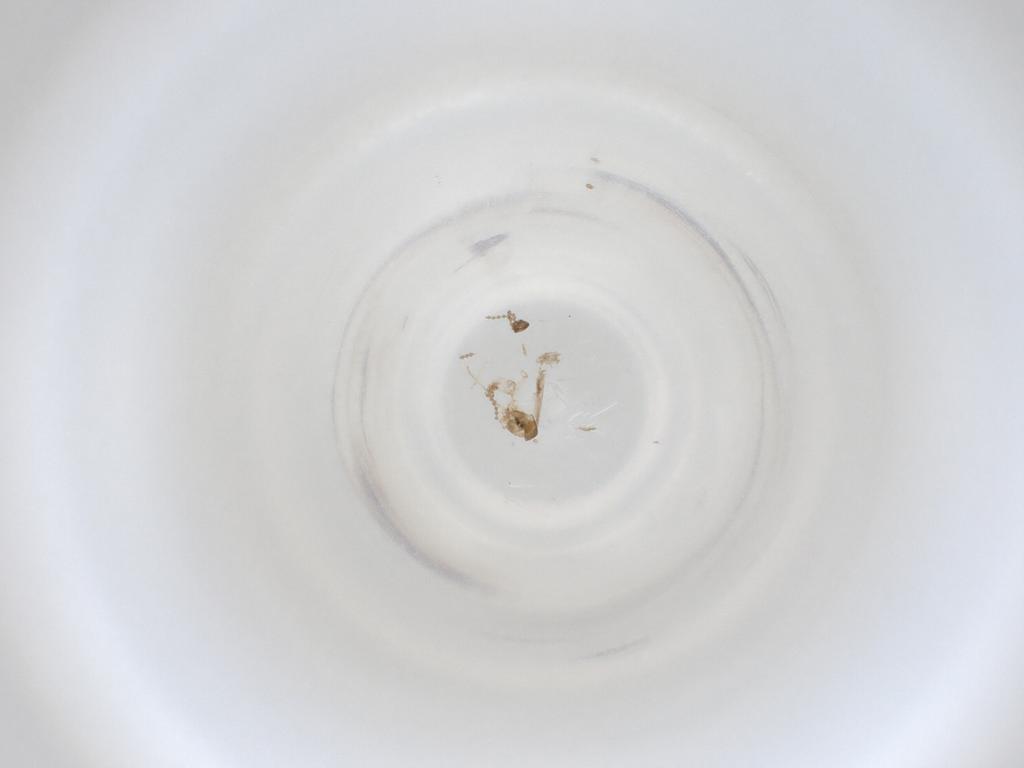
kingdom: Animalia
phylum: Arthropoda
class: Insecta
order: Diptera
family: Cecidomyiidae
